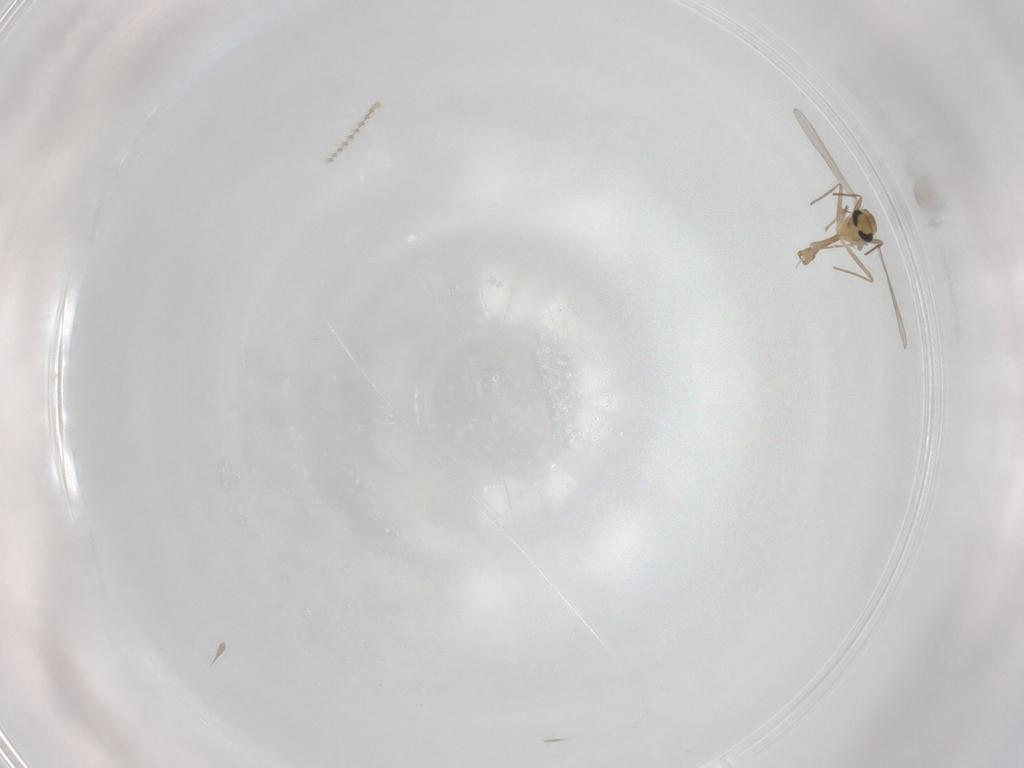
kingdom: Animalia
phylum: Arthropoda
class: Insecta
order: Diptera
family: Chironomidae
